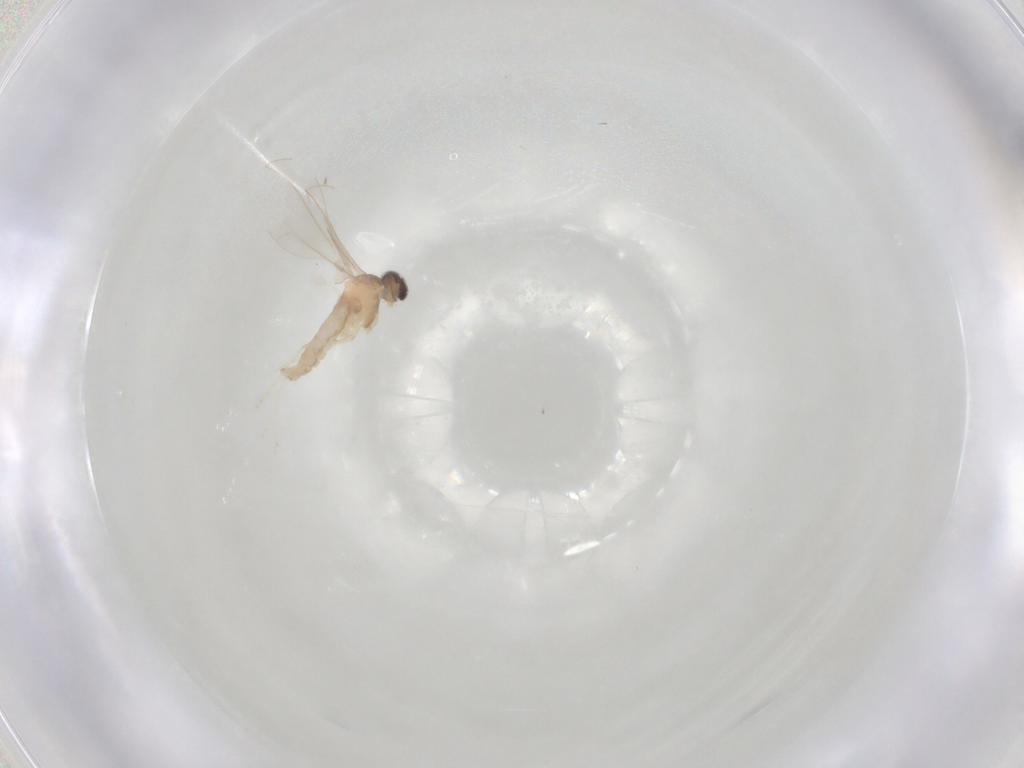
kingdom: Animalia
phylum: Arthropoda
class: Insecta
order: Diptera
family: Cecidomyiidae
